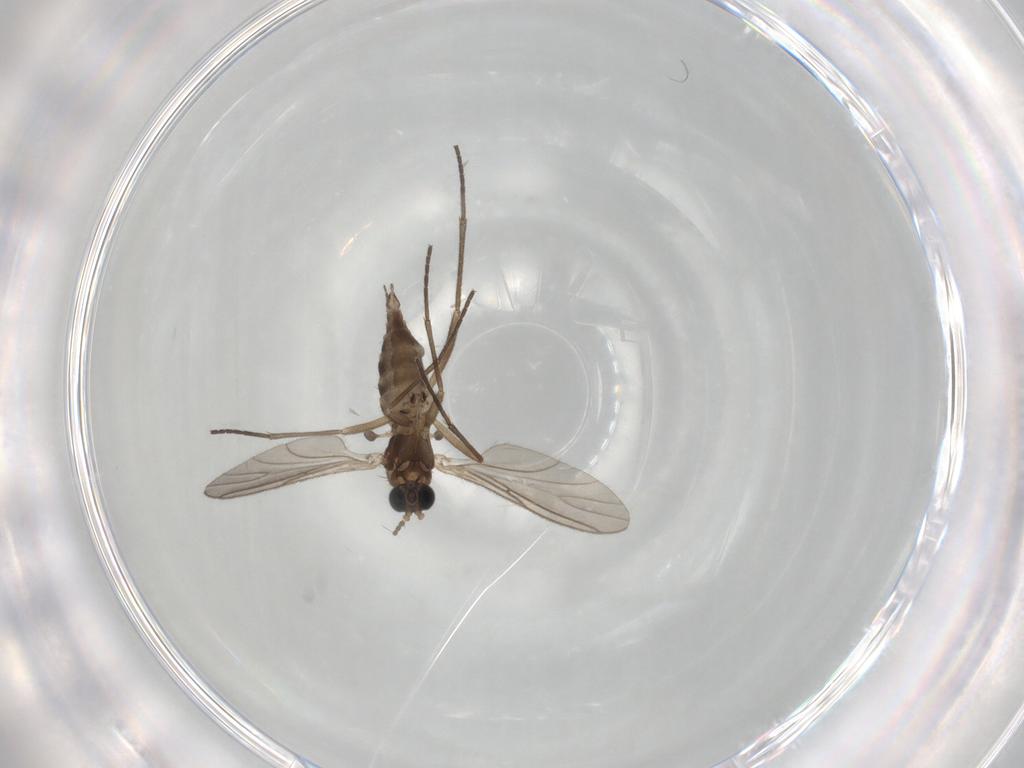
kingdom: Animalia
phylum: Arthropoda
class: Insecta
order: Diptera
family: Sciaridae
